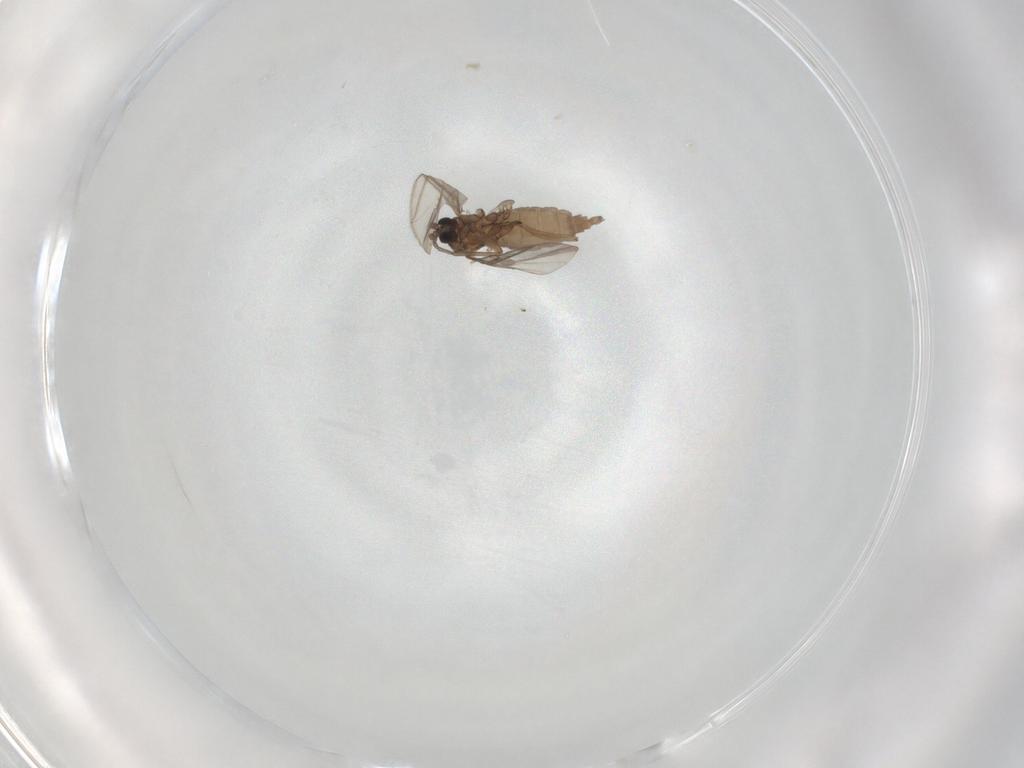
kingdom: Animalia
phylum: Arthropoda
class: Insecta
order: Diptera
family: Sciaridae
